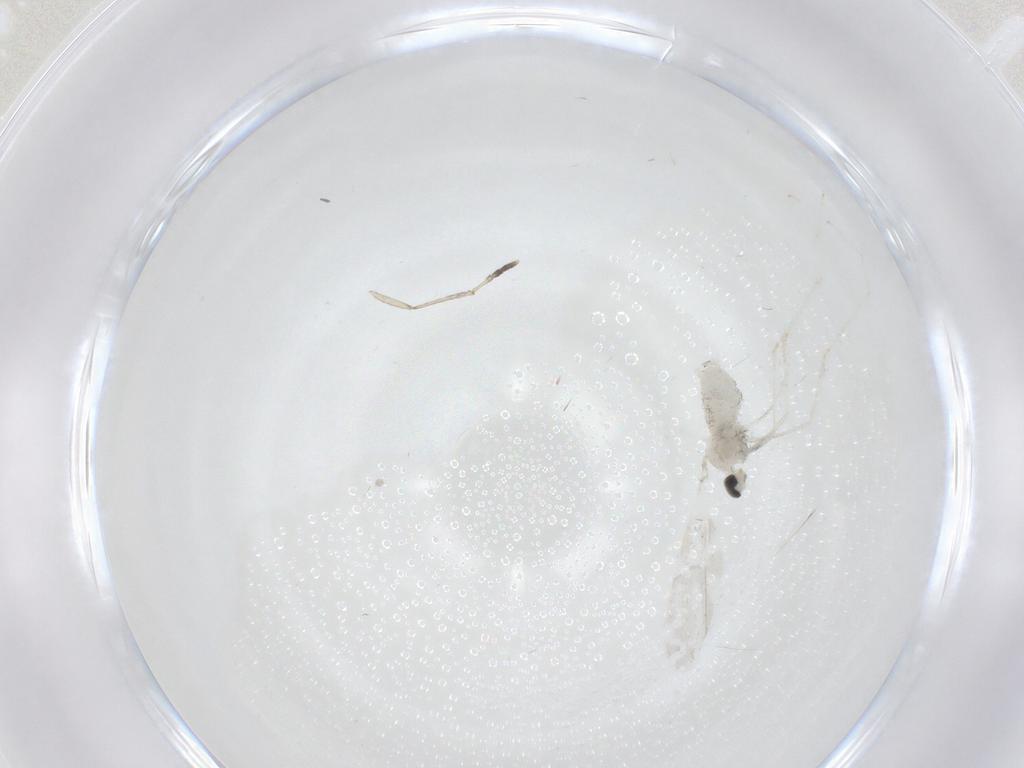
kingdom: Animalia
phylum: Arthropoda
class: Insecta
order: Diptera
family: Cecidomyiidae
